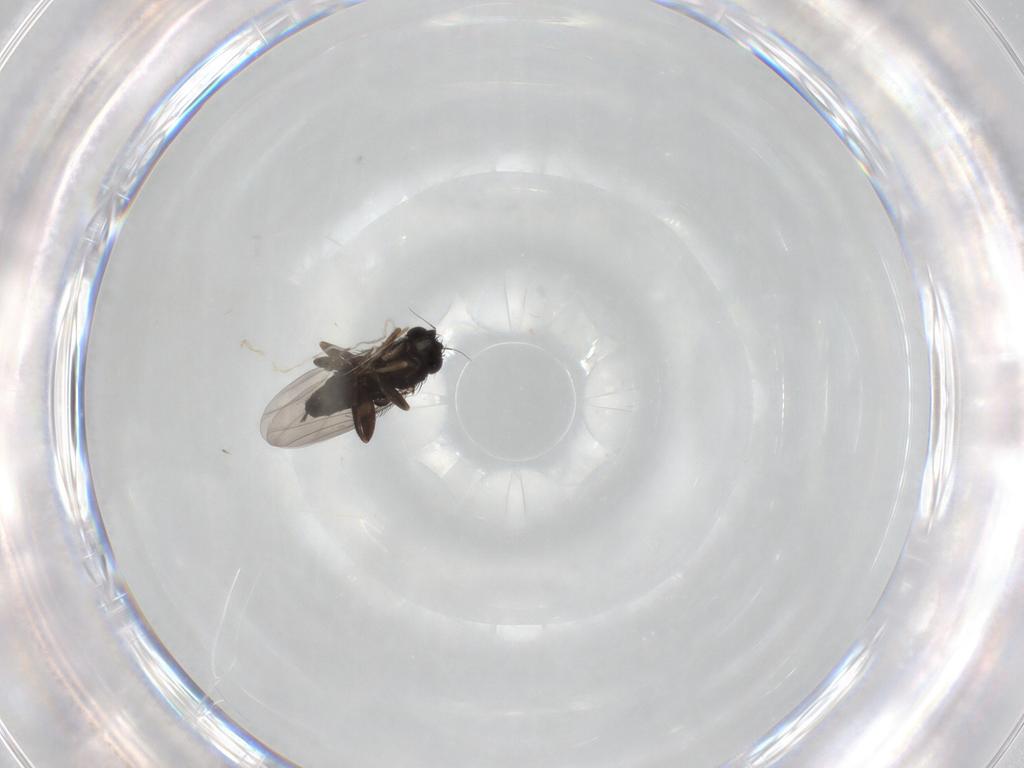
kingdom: Animalia
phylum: Arthropoda
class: Insecta
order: Diptera
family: Phoridae
